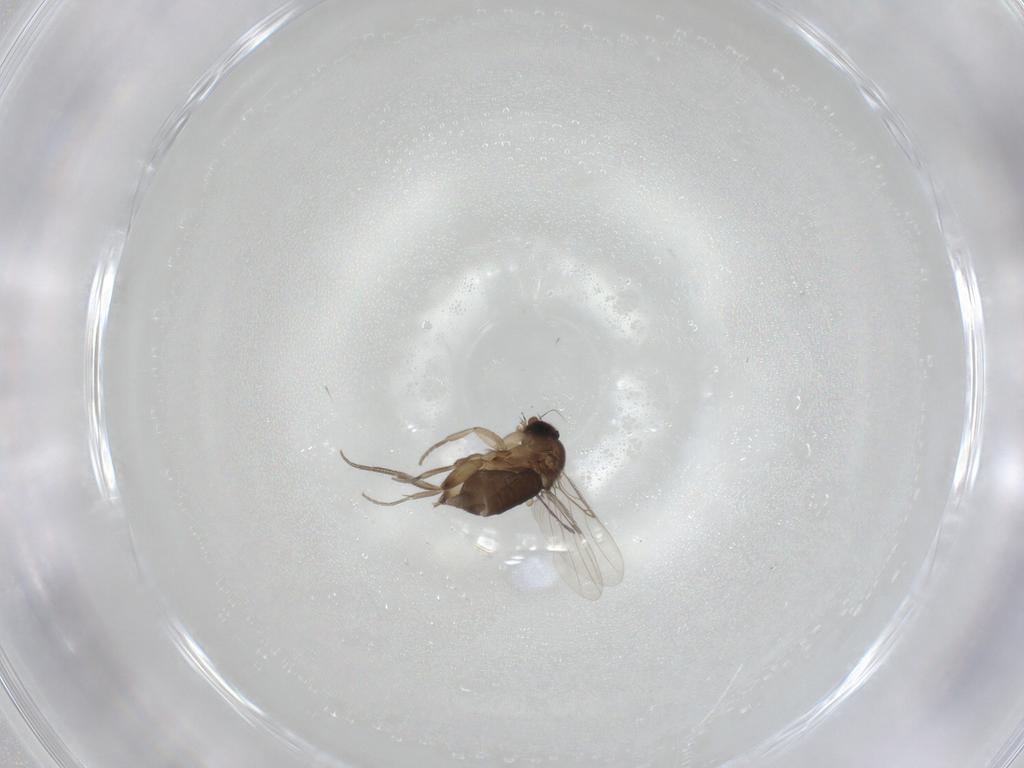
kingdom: Animalia
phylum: Arthropoda
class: Insecta
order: Diptera
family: Phoridae
